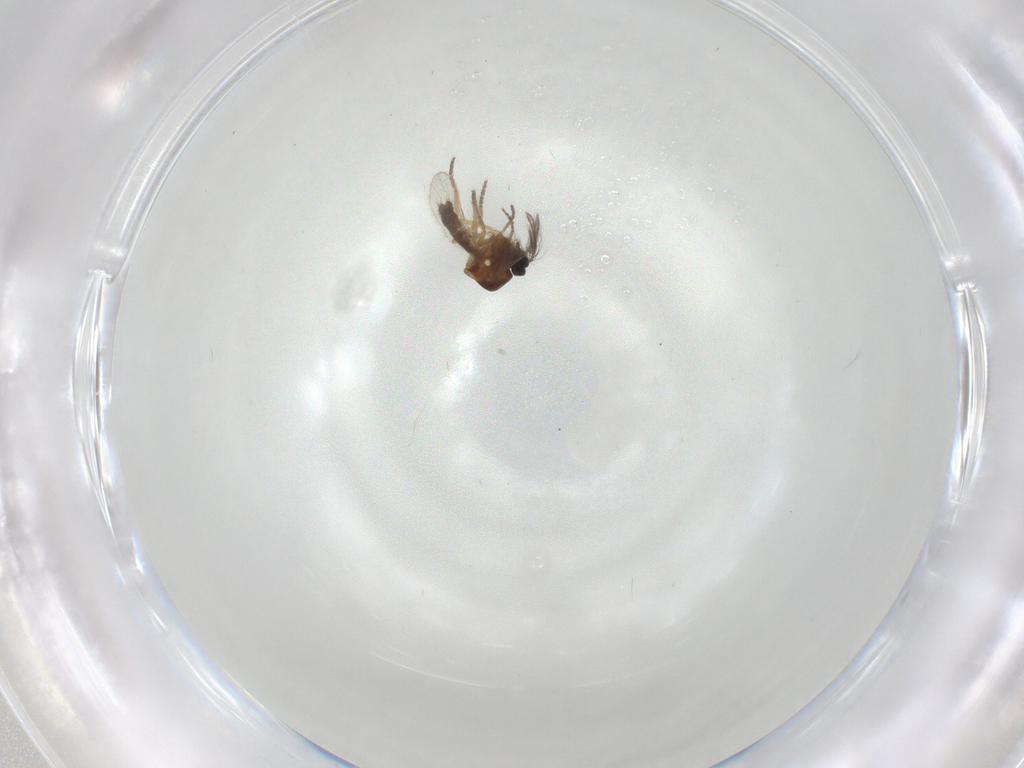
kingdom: Animalia
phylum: Arthropoda
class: Insecta
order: Diptera
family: Ceratopogonidae
